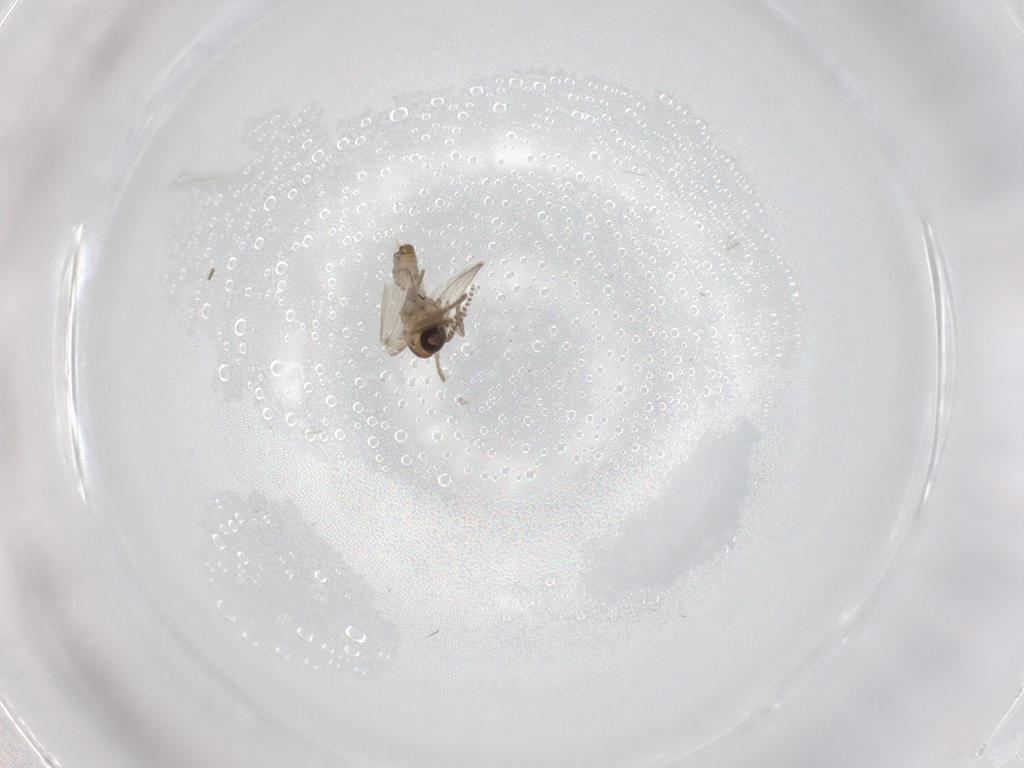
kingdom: Animalia
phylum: Arthropoda
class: Insecta
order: Diptera
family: Psychodidae
